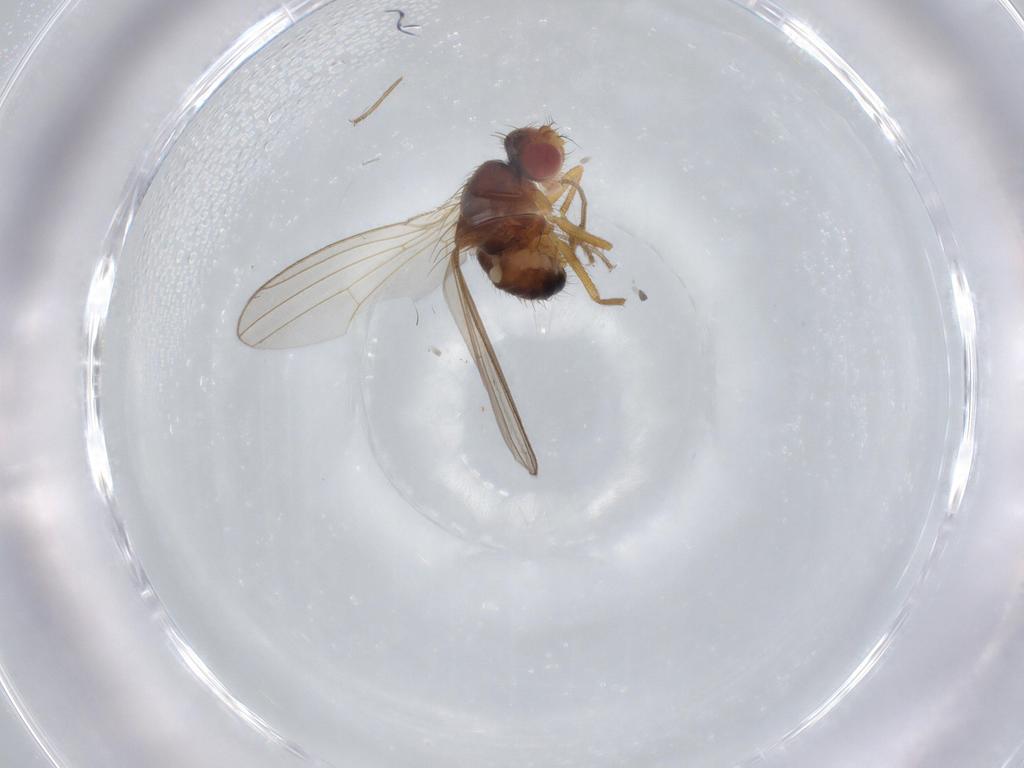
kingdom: Animalia
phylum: Arthropoda
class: Insecta
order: Diptera
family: Drosophilidae
